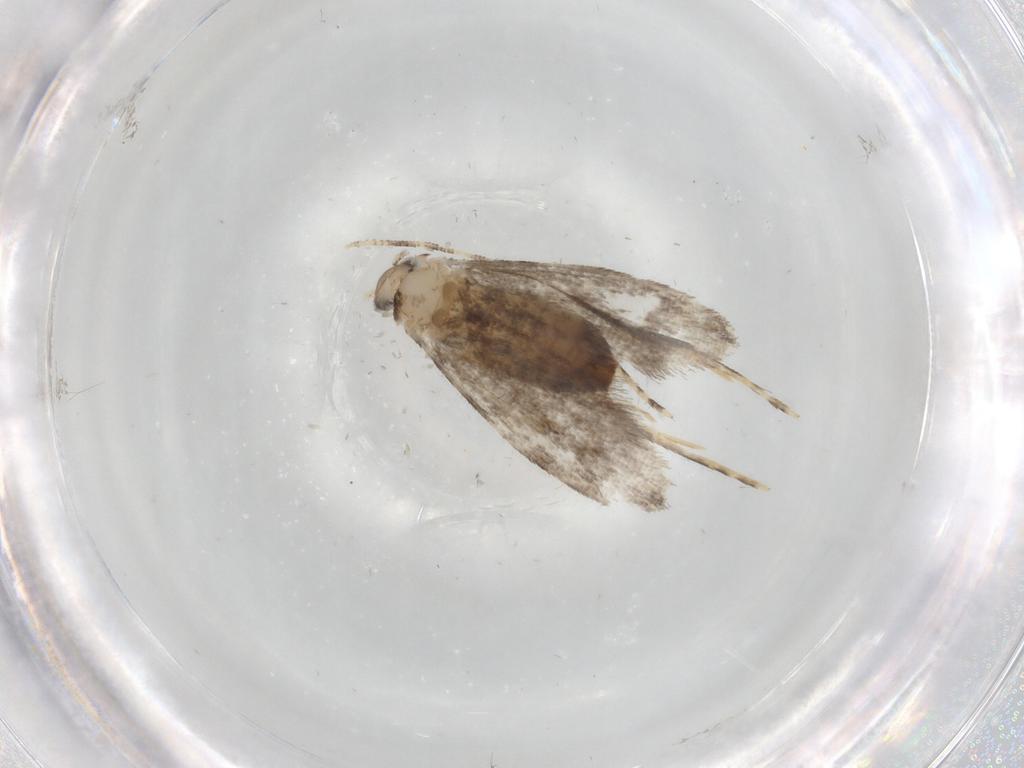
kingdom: Animalia
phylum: Arthropoda
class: Insecta
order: Lepidoptera
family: Tineidae
